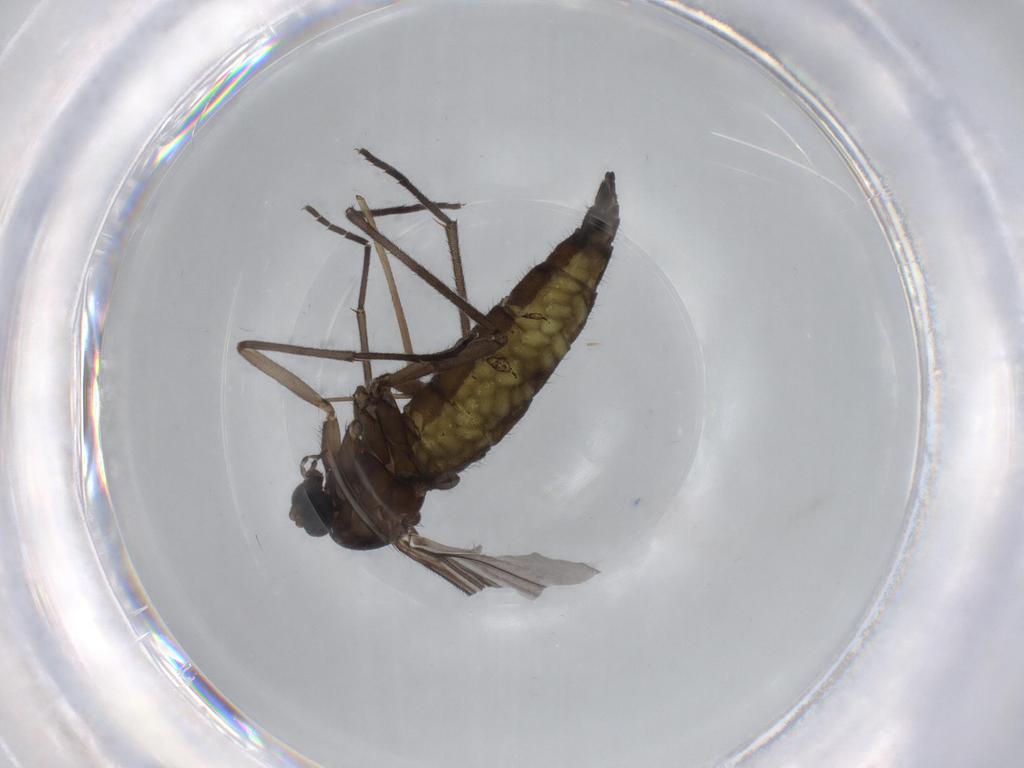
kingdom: Animalia
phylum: Arthropoda
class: Insecta
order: Diptera
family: Sciaridae
